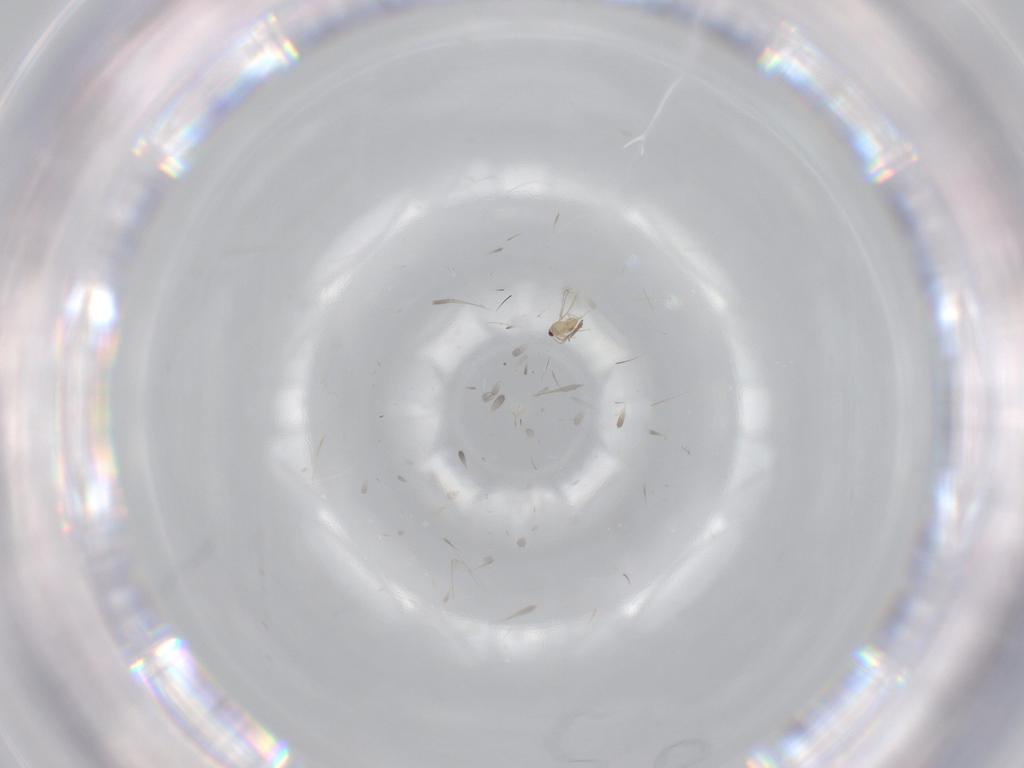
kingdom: Animalia
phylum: Arthropoda
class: Insecta
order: Hymenoptera
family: Mymaridae
